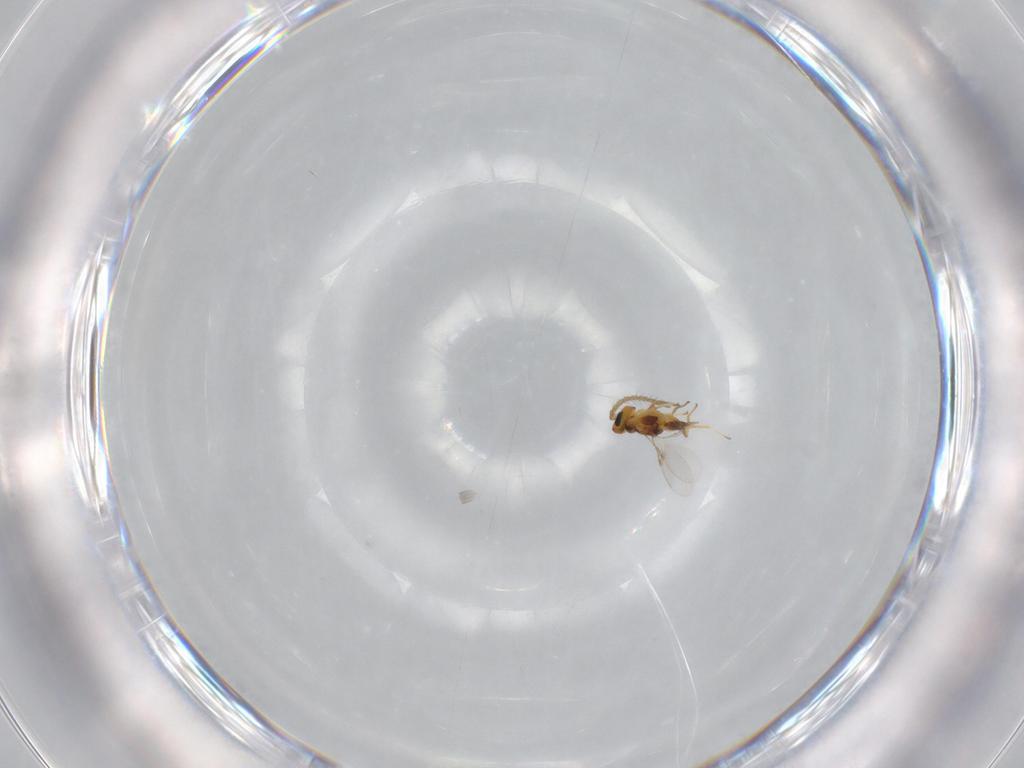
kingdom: Animalia
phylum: Arthropoda
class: Insecta
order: Hymenoptera
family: Encyrtidae
